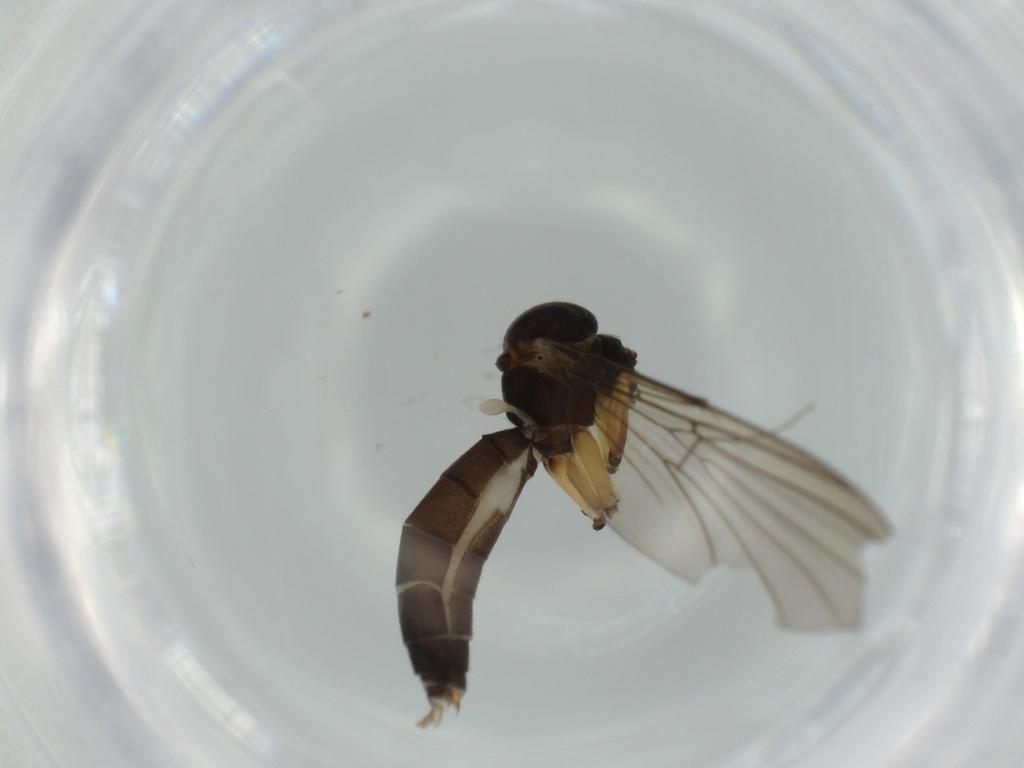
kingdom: Animalia
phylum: Arthropoda
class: Insecta
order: Diptera
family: Mycetophilidae
